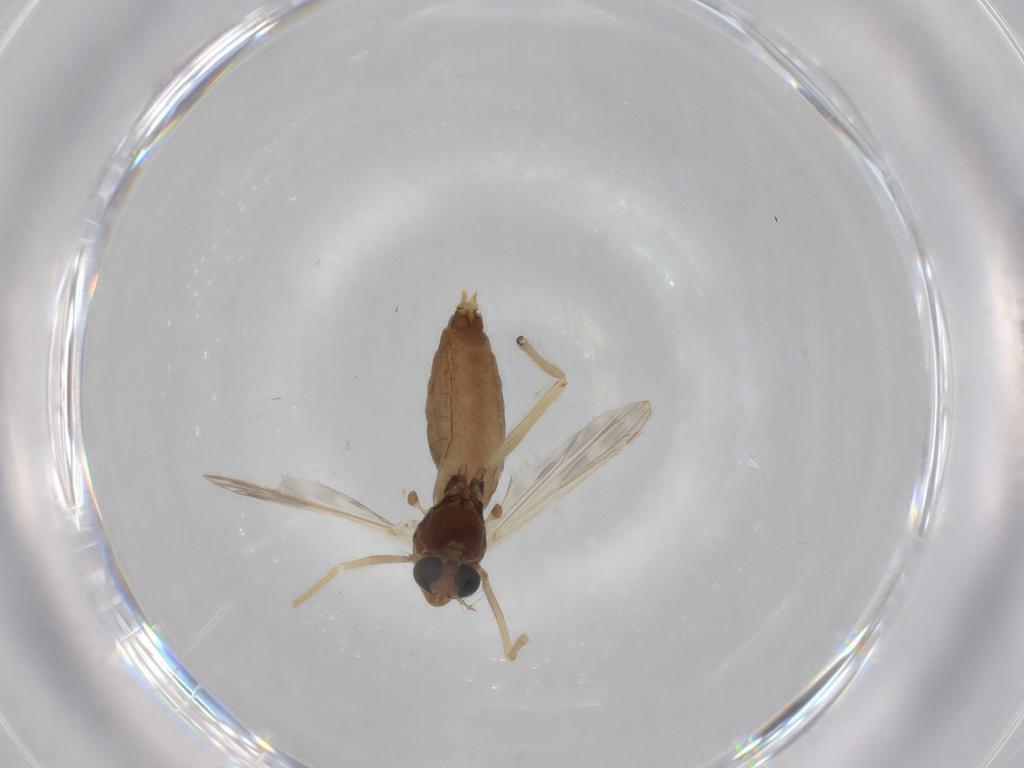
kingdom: Animalia
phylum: Arthropoda
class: Insecta
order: Diptera
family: Chironomidae
